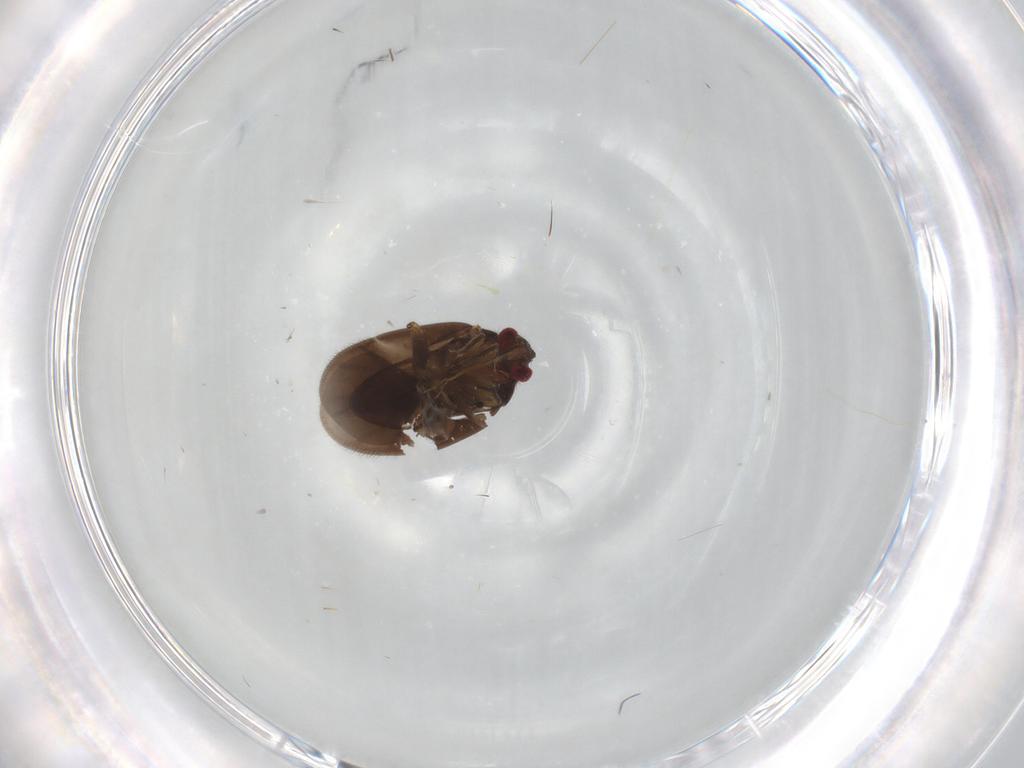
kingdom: Animalia
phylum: Arthropoda
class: Insecta
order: Hemiptera
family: Ceratocombidae
